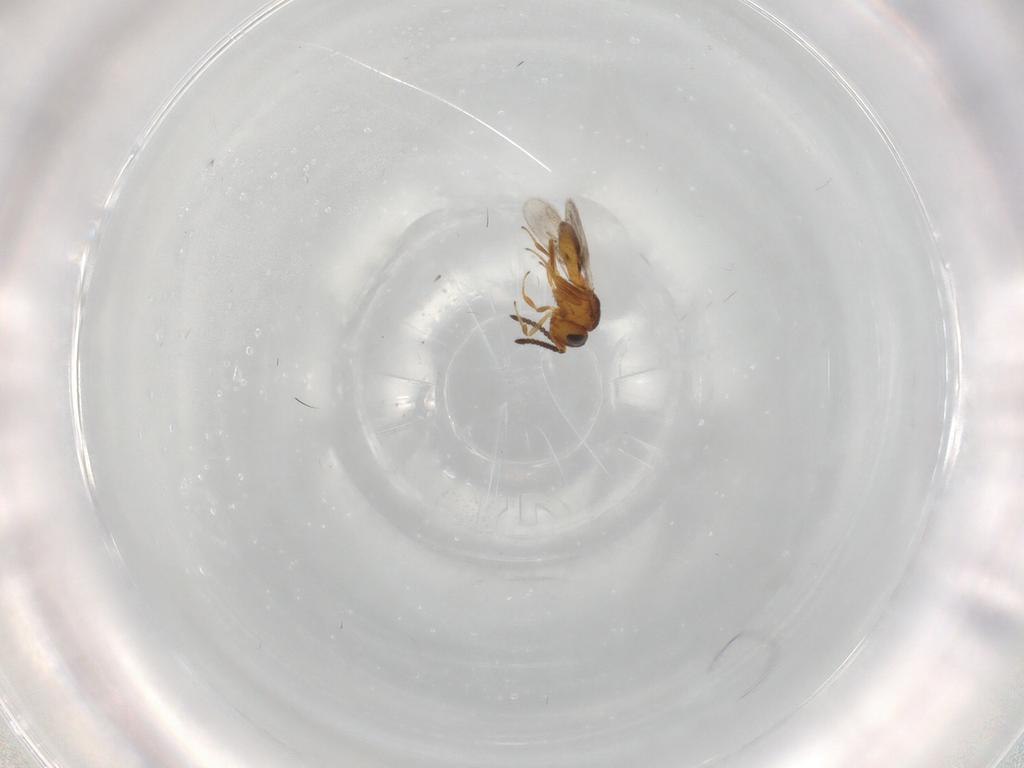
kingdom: Animalia
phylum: Arthropoda
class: Insecta
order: Hymenoptera
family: Scelionidae
